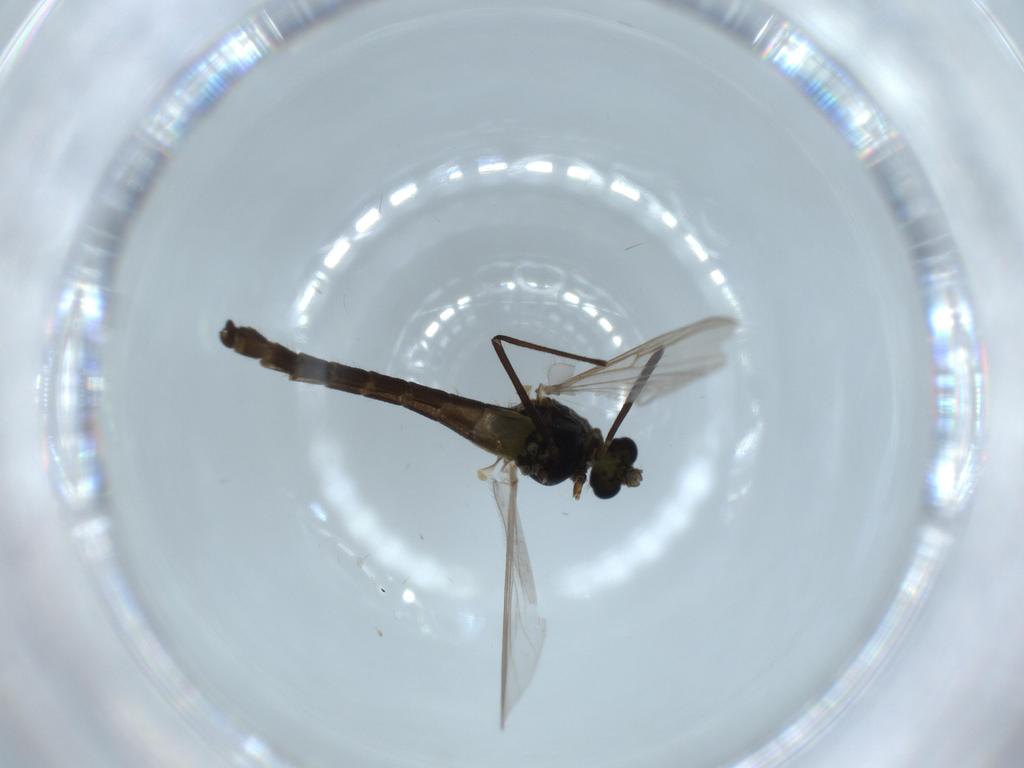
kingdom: Animalia
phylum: Arthropoda
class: Insecta
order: Diptera
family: Chironomidae
